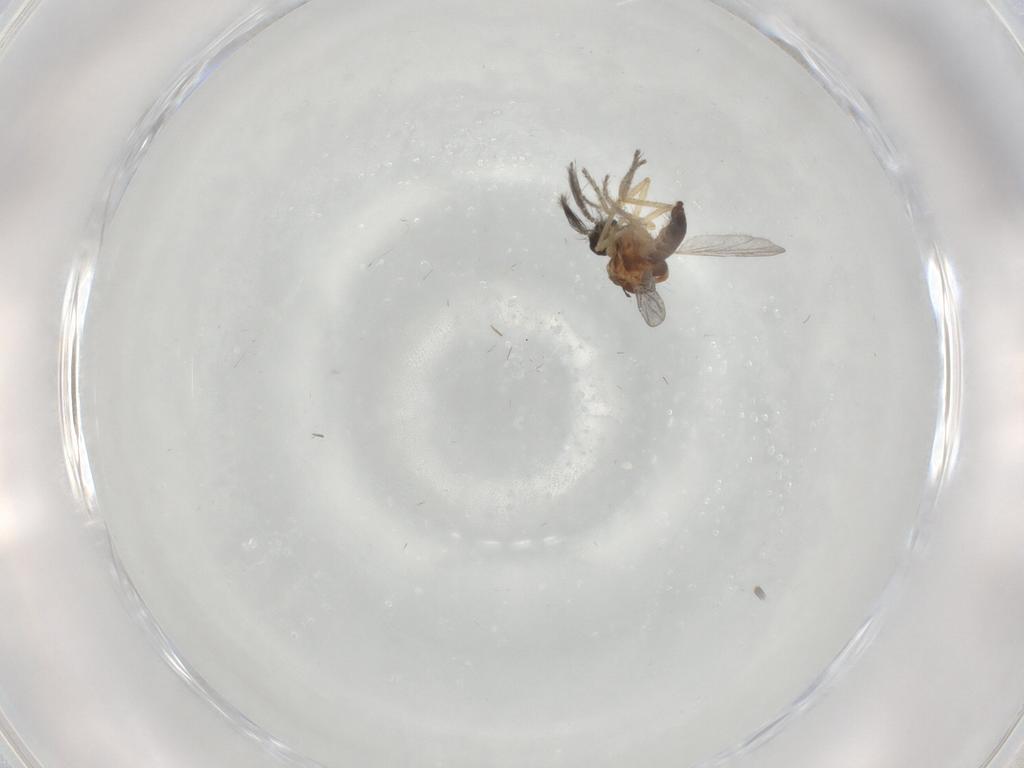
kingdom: Animalia
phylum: Arthropoda
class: Insecta
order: Diptera
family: Ceratopogonidae
